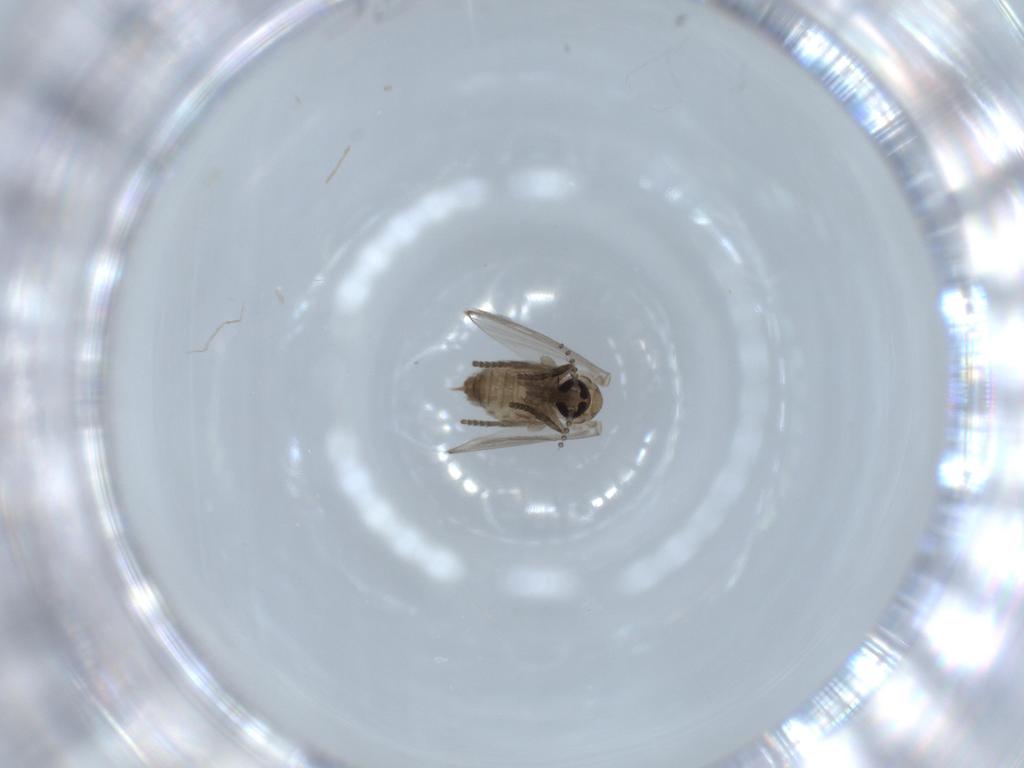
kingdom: Animalia
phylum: Arthropoda
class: Insecta
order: Diptera
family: Psychodidae
